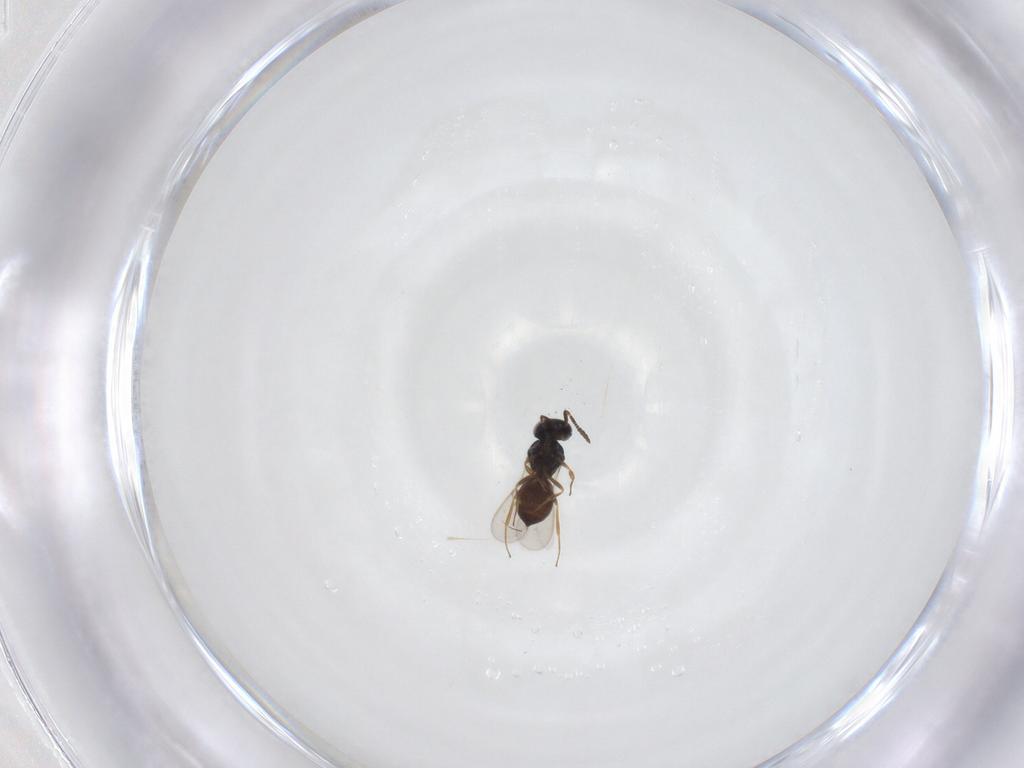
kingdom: Animalia
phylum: Arthropoda
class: Insecta
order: Hymenoptera
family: Scelionidae
